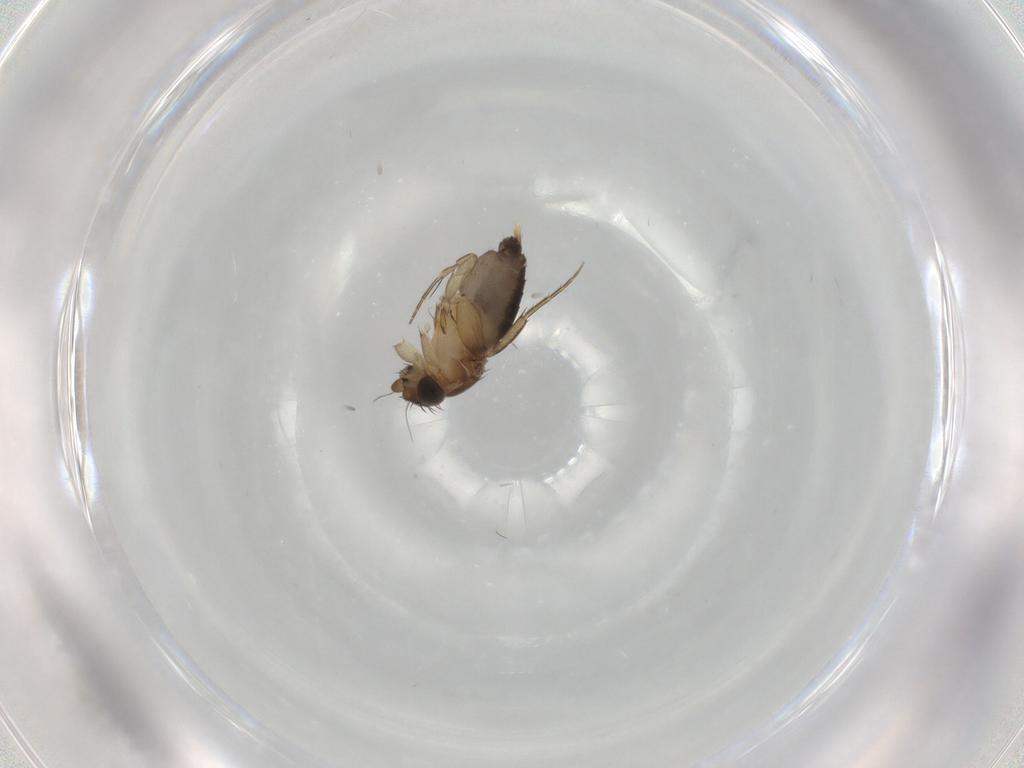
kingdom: Animalia
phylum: Arthropoda
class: Insecta
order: Diptera
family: Phoridae
